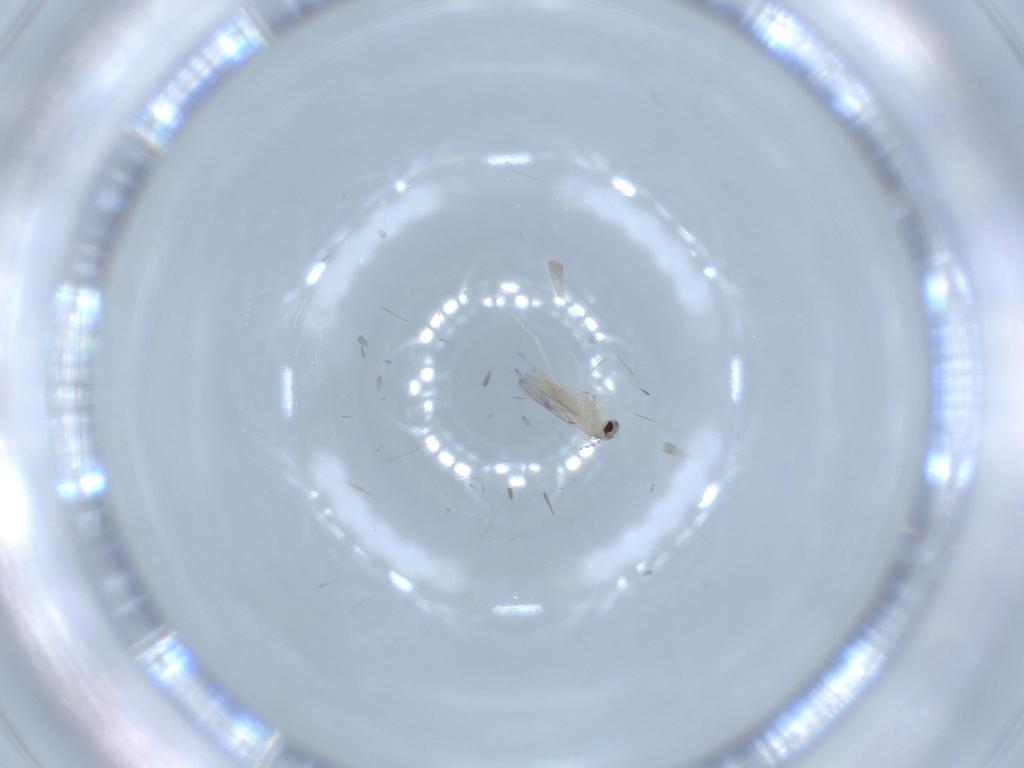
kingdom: Animalia
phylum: Arthropoda
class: Insecta
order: Diptera
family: Cecidomyiidae
